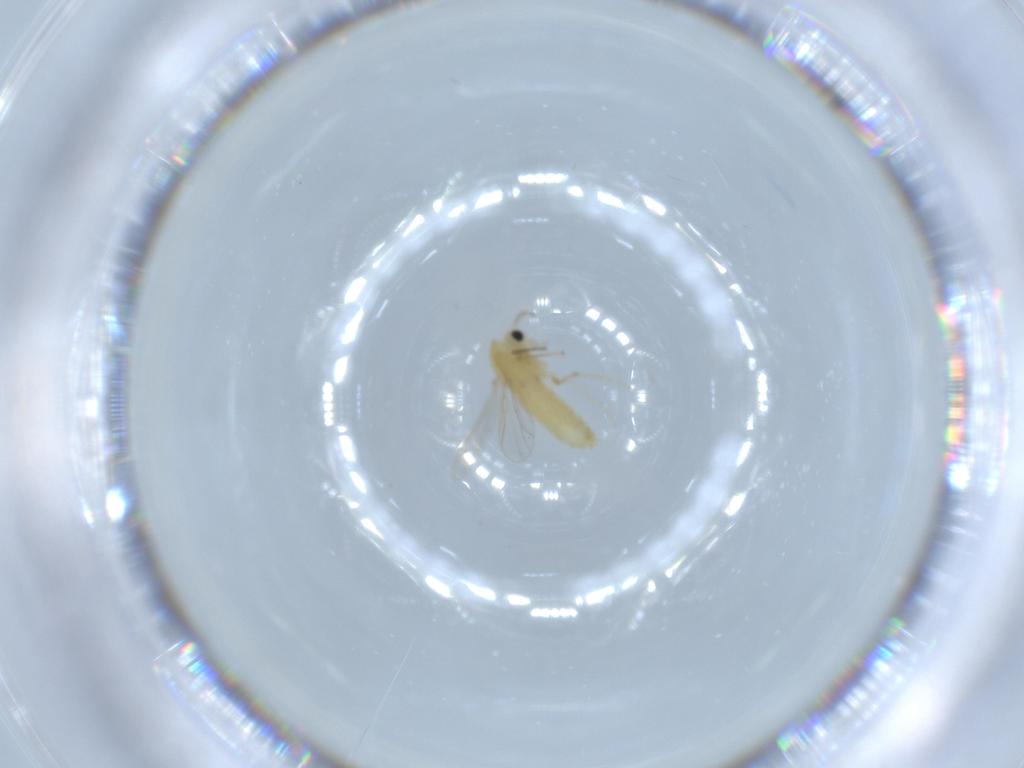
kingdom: Animalia
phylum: Arthropoda
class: Insecta
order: Diptera
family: Chironomidae
